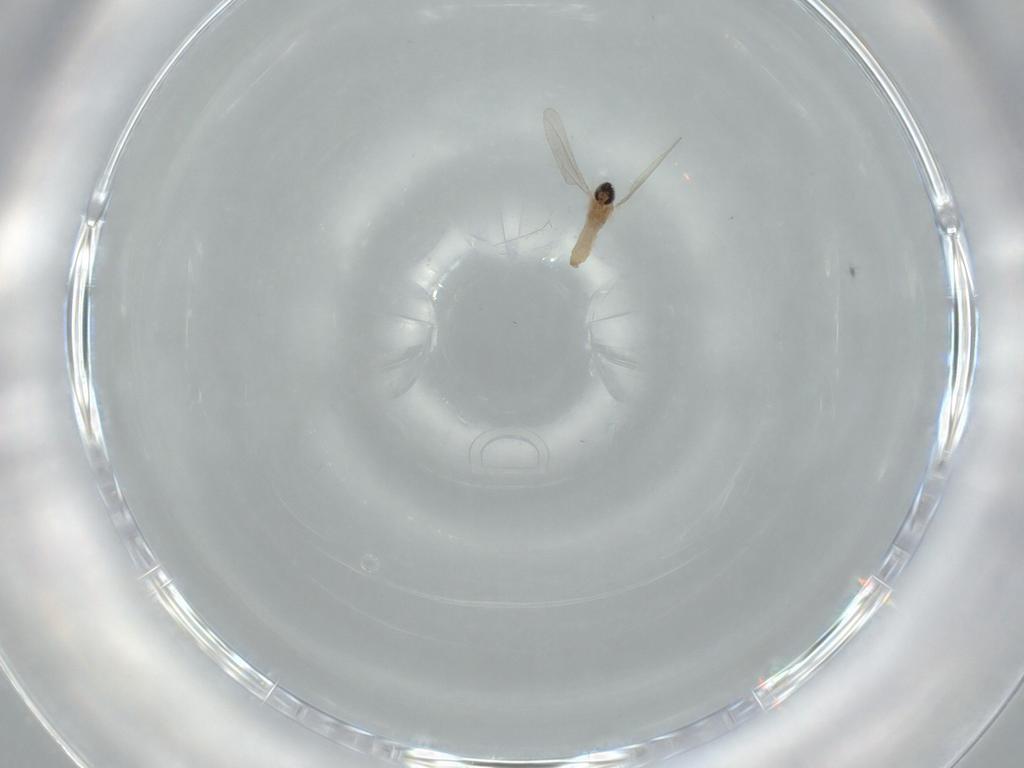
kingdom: Animalia
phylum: Arthropoda
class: Insecta
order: Diptera
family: Cecidomyiidae
